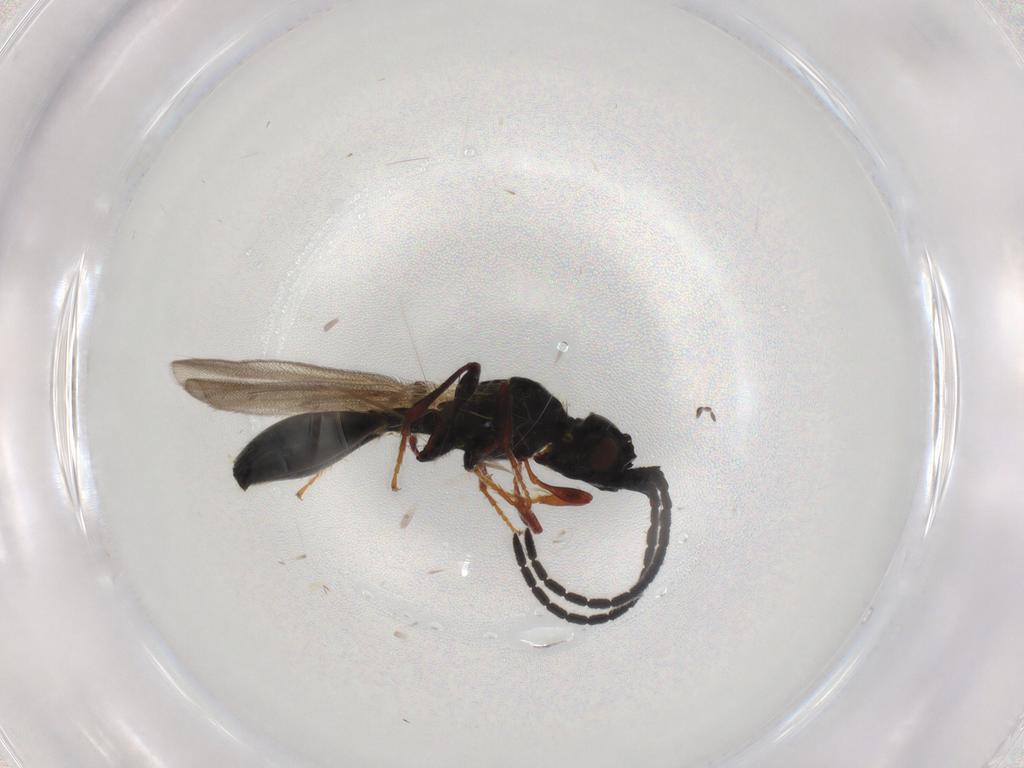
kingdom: Animalia
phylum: Arthropoda
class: Insecta
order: Hymenoptera
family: Diapriidae
